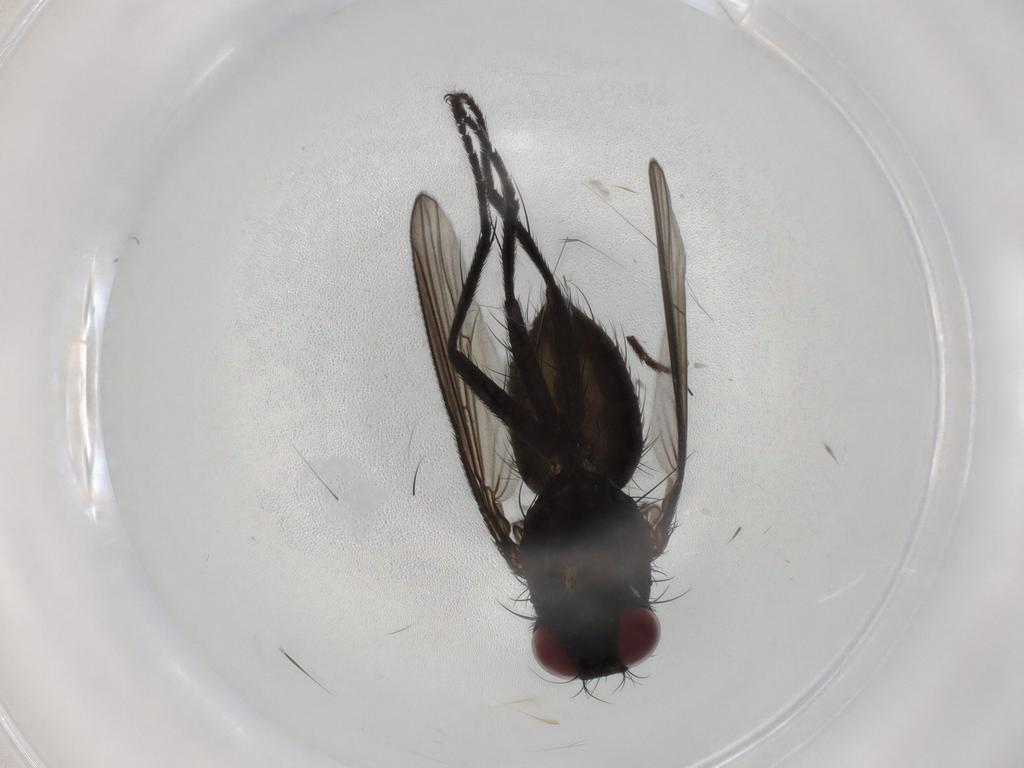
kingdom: Animalia
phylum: Arthropoda
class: Insecta
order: Diptera
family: Muscidae
